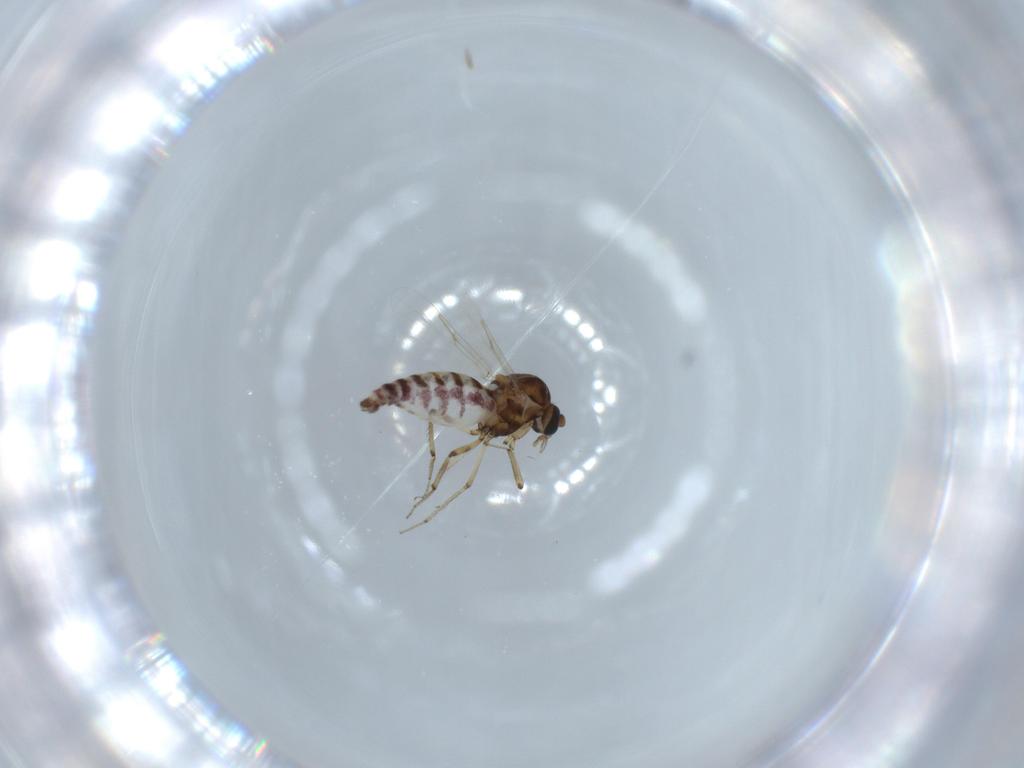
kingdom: Animalia
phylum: Arthropoda
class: Insecta
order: Diptera
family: Ceratopogonidae
